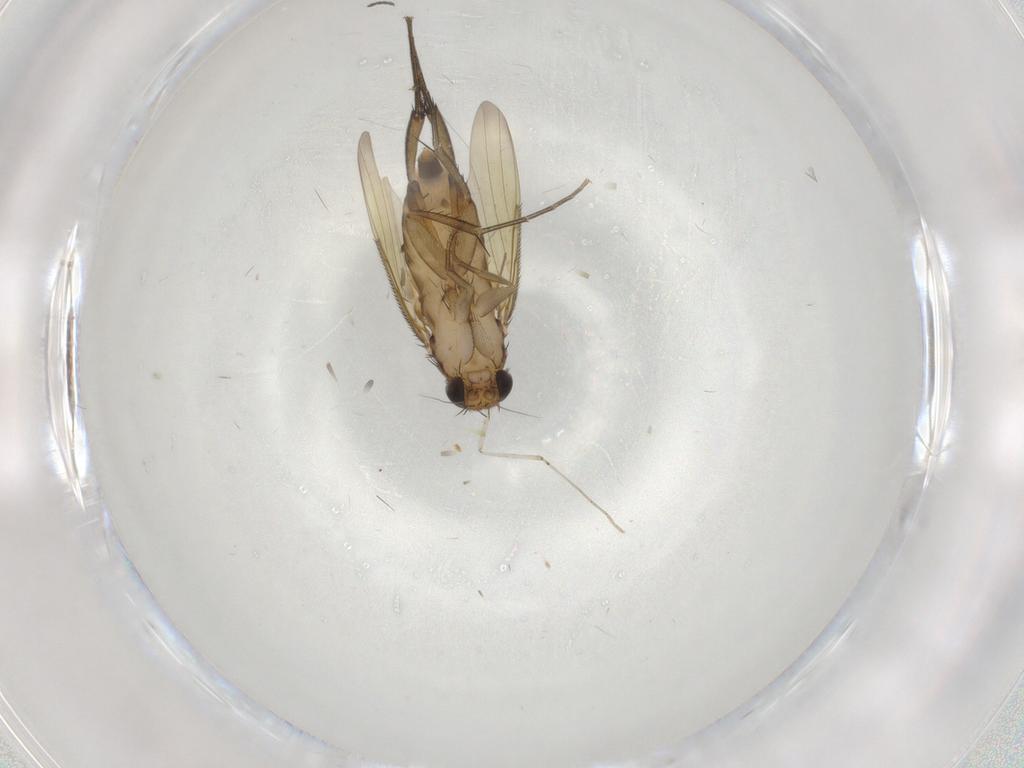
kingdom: Animalia
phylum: Arthropoda
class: Insecta
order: Diptera
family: Phoridae
